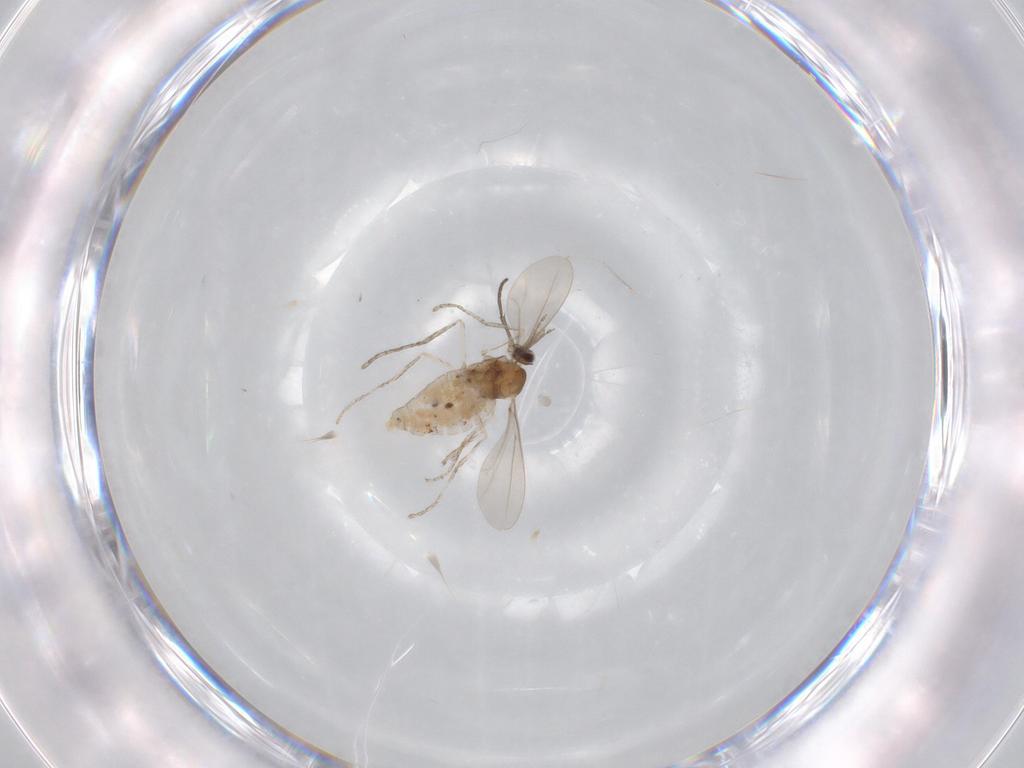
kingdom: Animalia
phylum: Arthropoda
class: Insecta
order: Diptera
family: Cecidomyiidae
